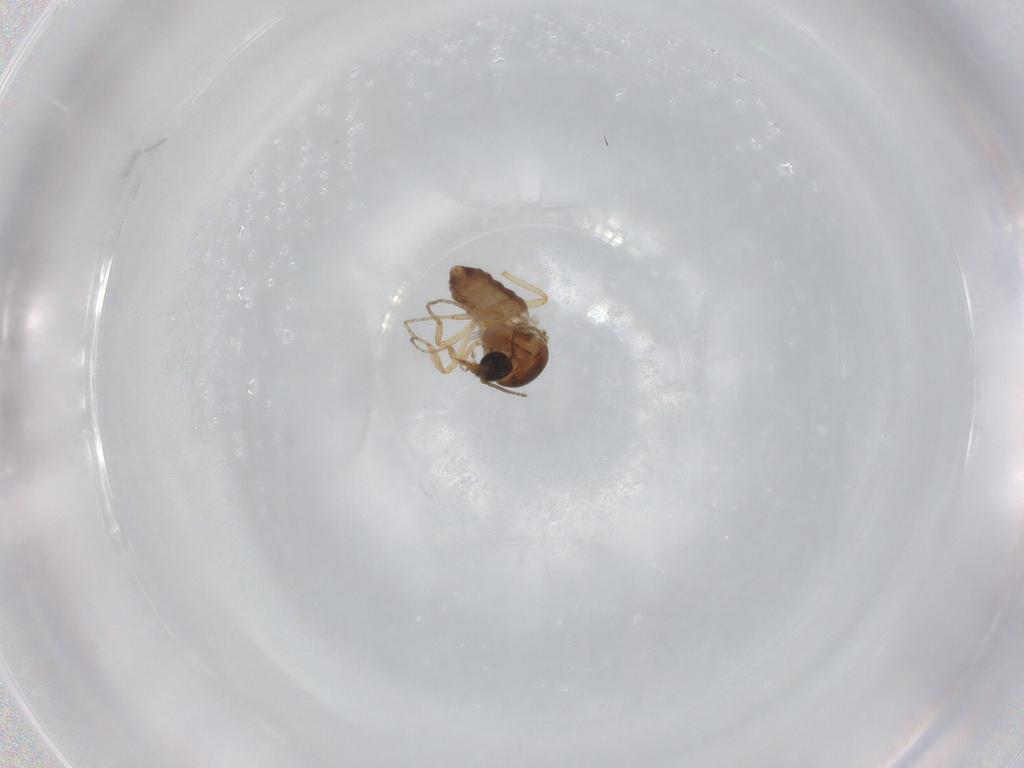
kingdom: Animalia
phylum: Arthropoda
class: Insecta
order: Diptera
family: Ceratopogonidae
